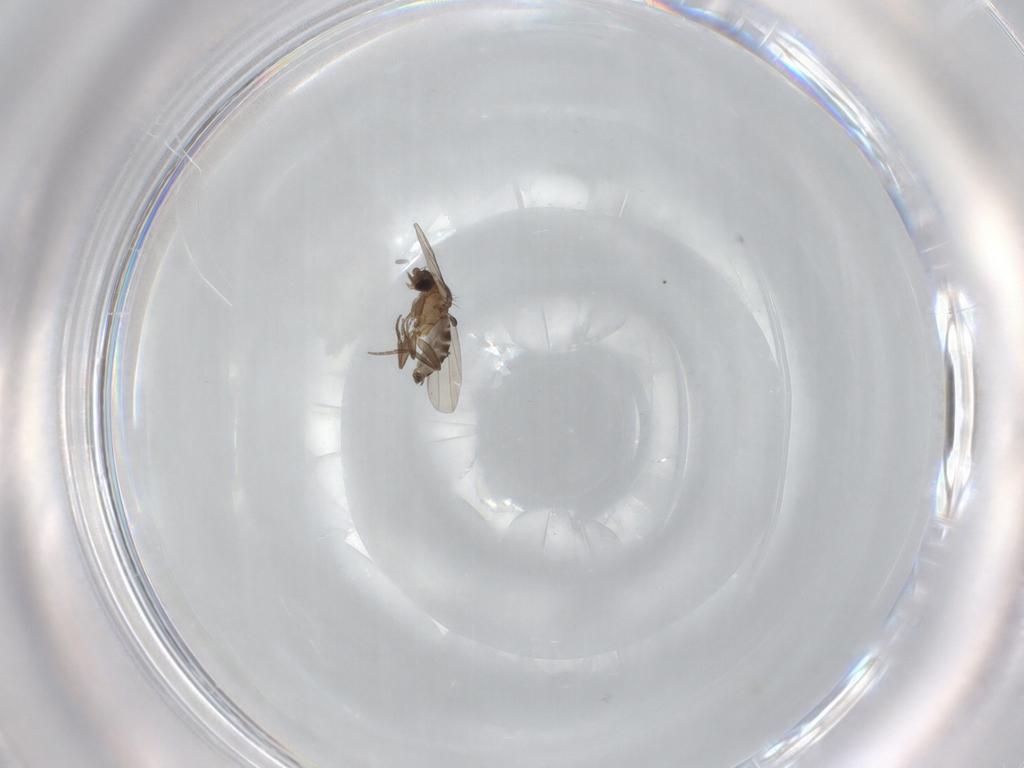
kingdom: Animalia
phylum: Arthropoda
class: Insecta
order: Diptera
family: Phoridae
